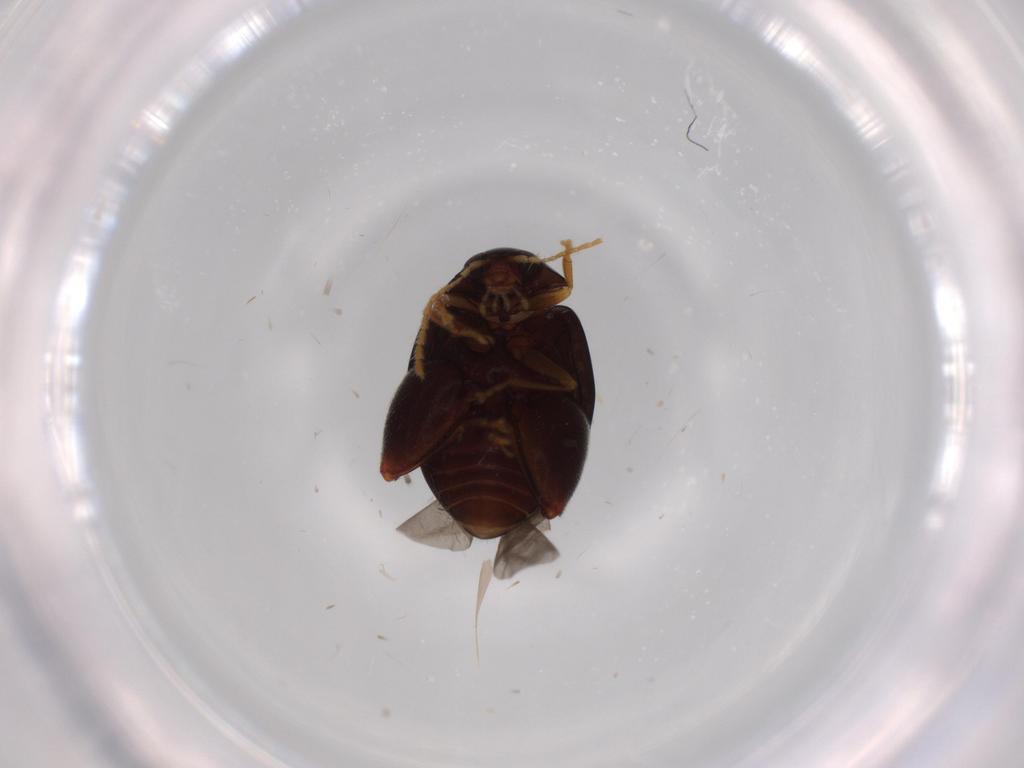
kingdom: Animalia
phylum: Arthropoda
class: Insecta
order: Coleoptera
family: Chrysomelidae
